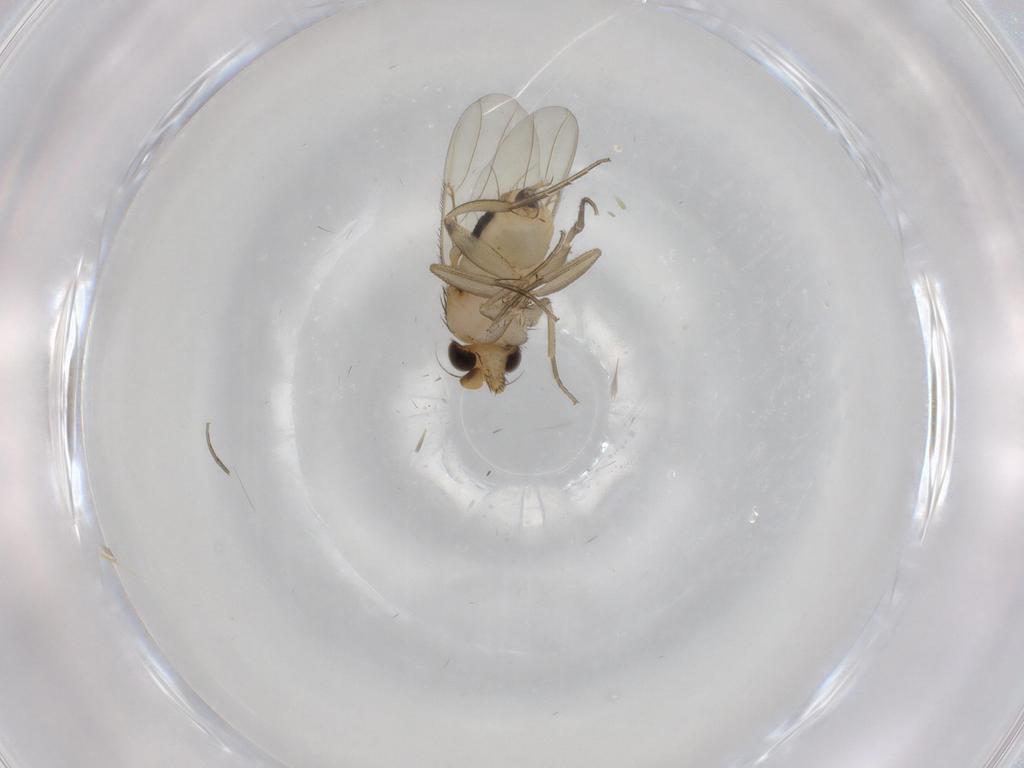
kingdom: Animalia
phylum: Arthropoda
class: Insecta
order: Diptera
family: Phoridae
